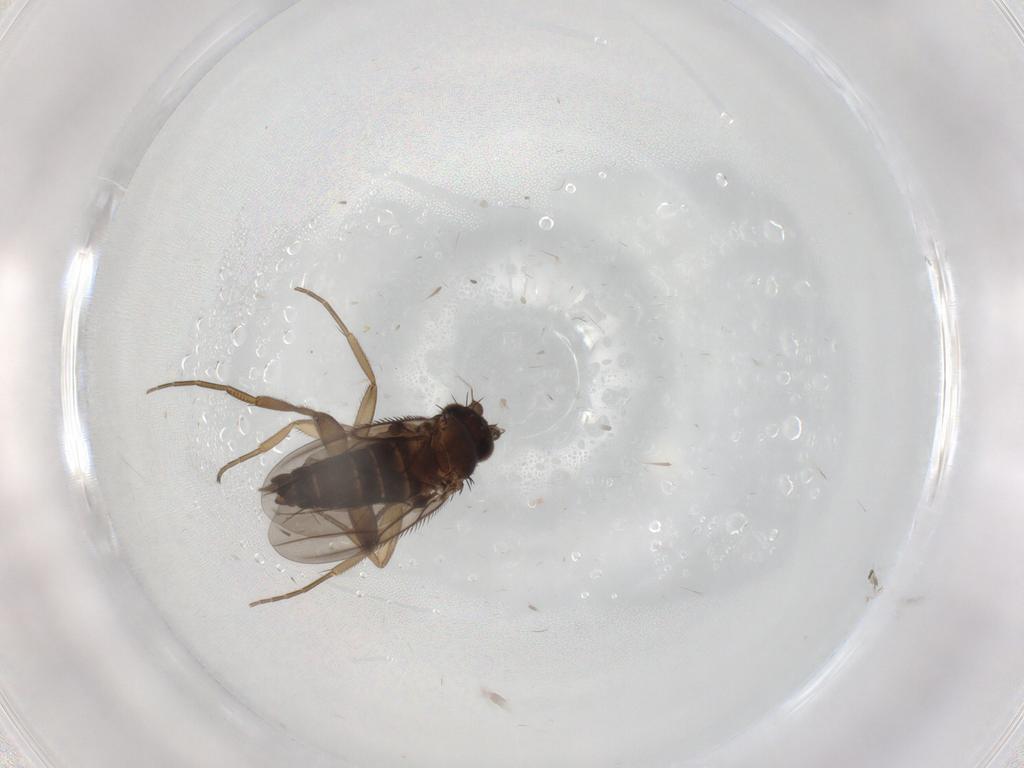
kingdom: Animalia
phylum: Arthropoda
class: Insecta
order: Diptera
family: Phoridae
